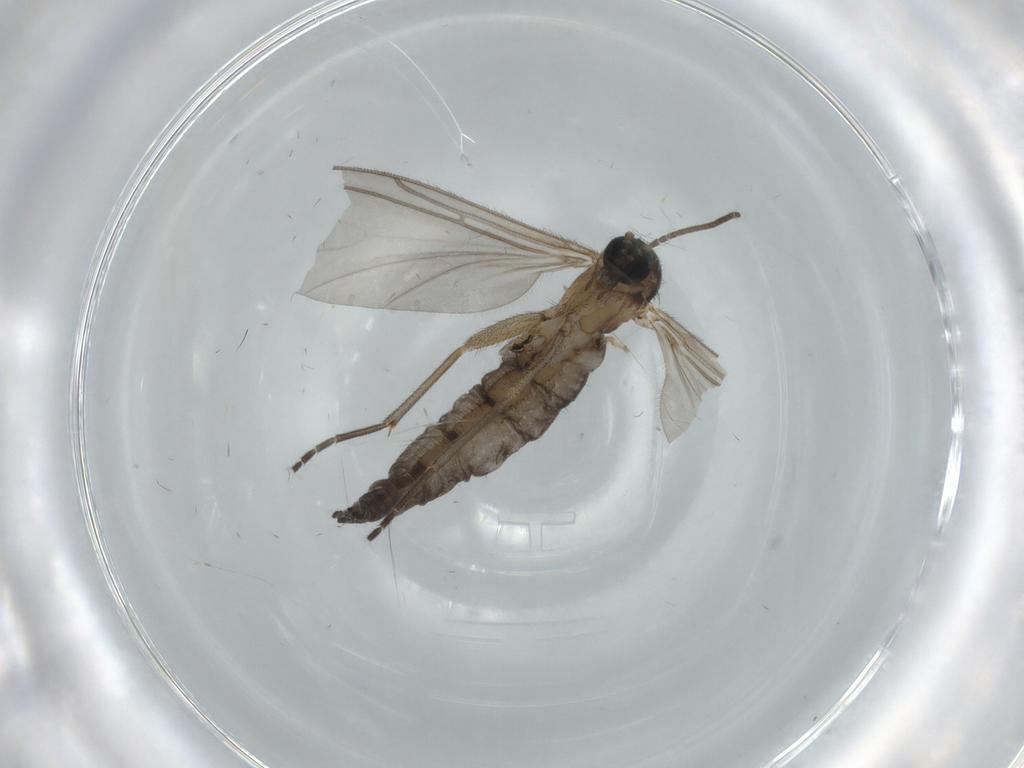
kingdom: Animalia
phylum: Arthropoda
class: Insecta
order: Diptera
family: Sciaridae
